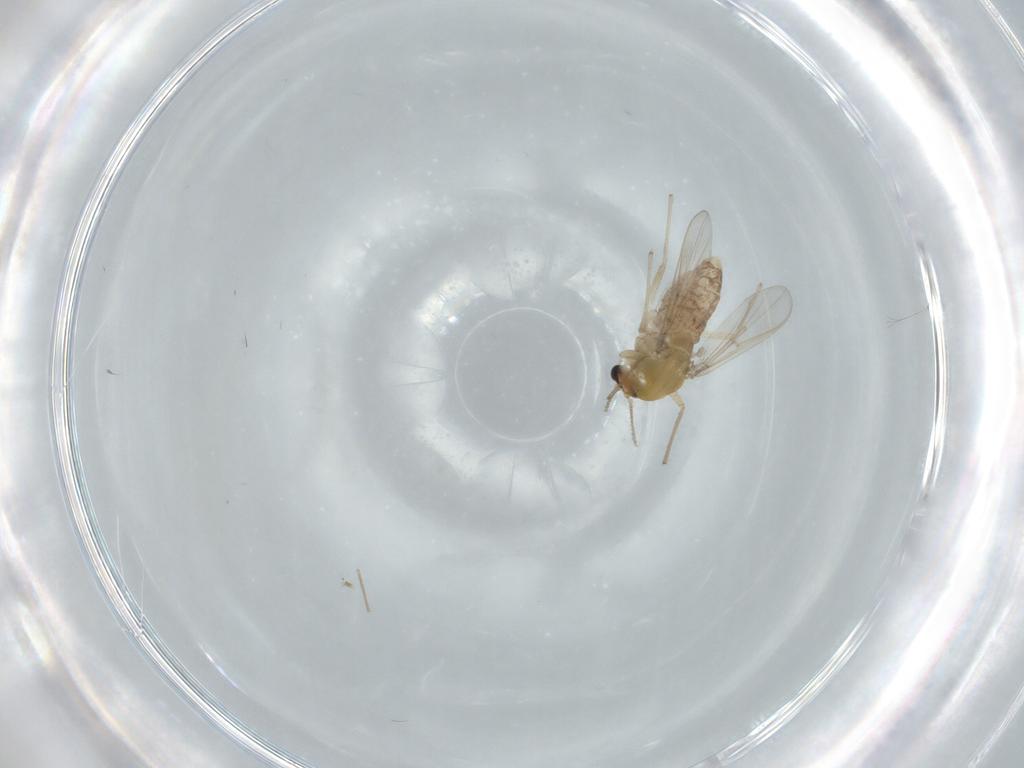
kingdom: Animalia
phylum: Arthropoda
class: Insecta
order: Diptera
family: Chironomidae
